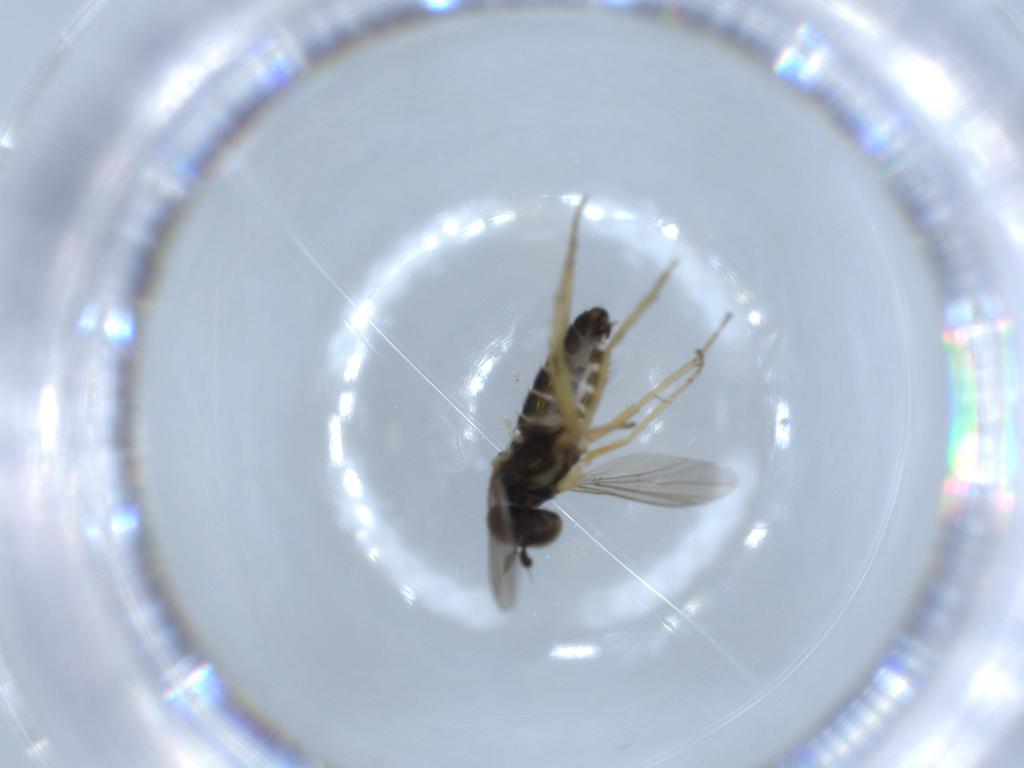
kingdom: Animalia
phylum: Arthropoda
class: Insecta
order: Diptera
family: Dolichopodidae
